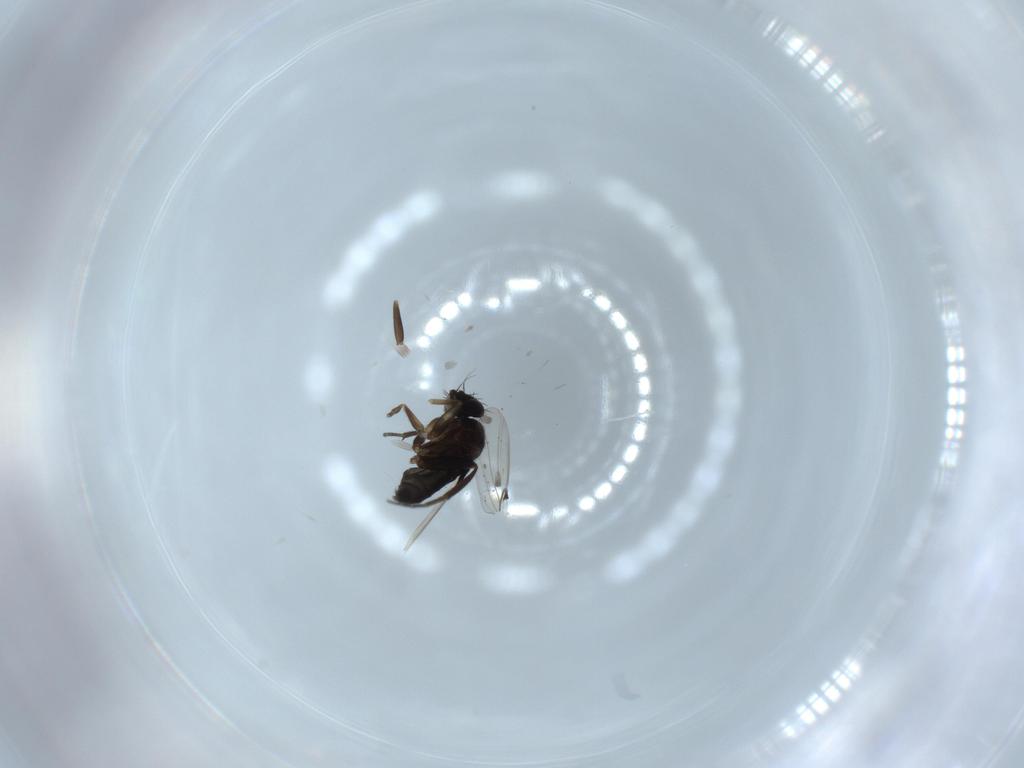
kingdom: Animalia
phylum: Arthropoda
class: Insecta
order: Diptera
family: Phoridae
